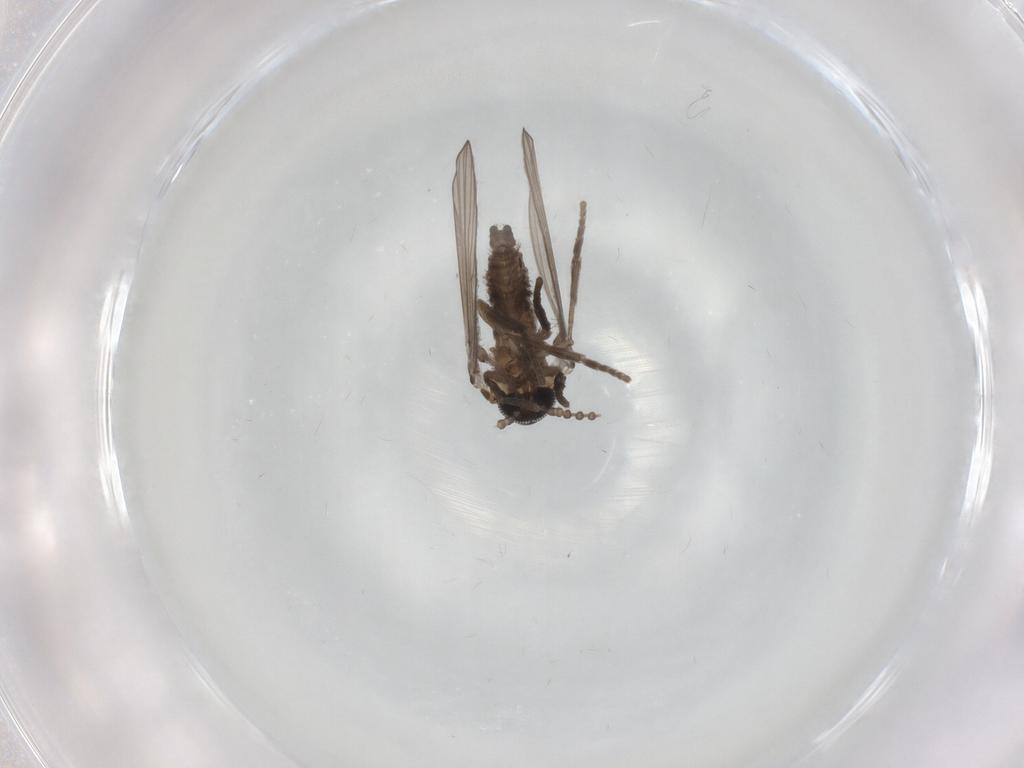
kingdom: Animalia
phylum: Arthropoda
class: Insecta
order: Diptera
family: Psychodidae
